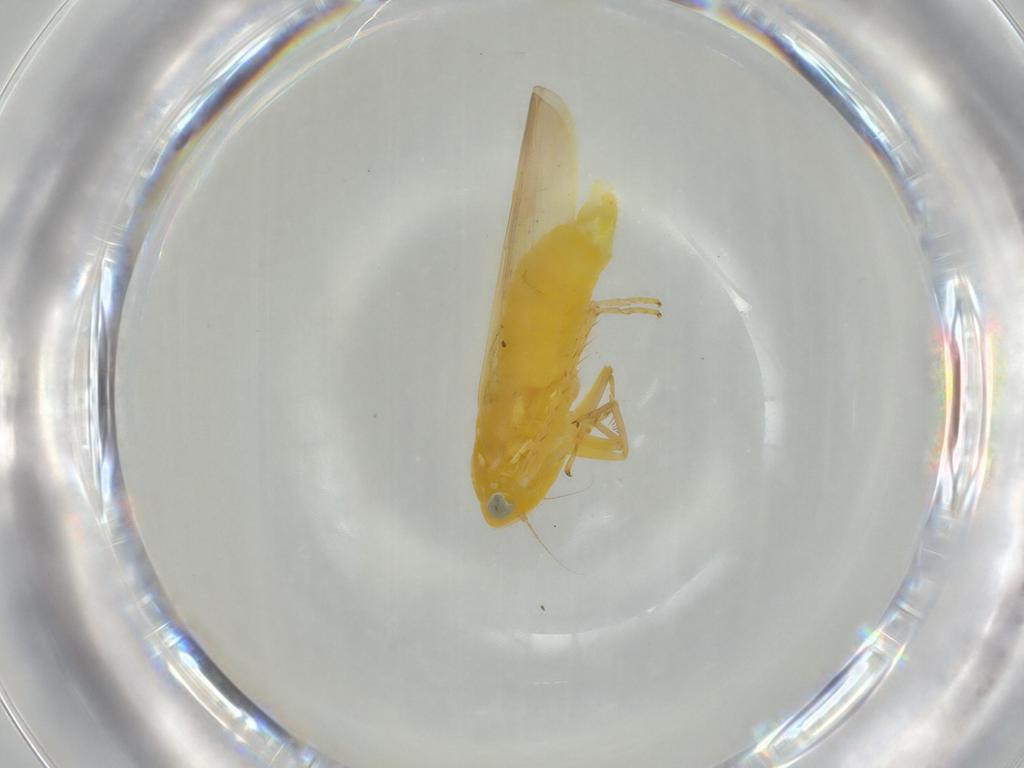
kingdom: Animalia
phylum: Arthropoda
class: Insecta
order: Hemiptera
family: Cicadellidae
